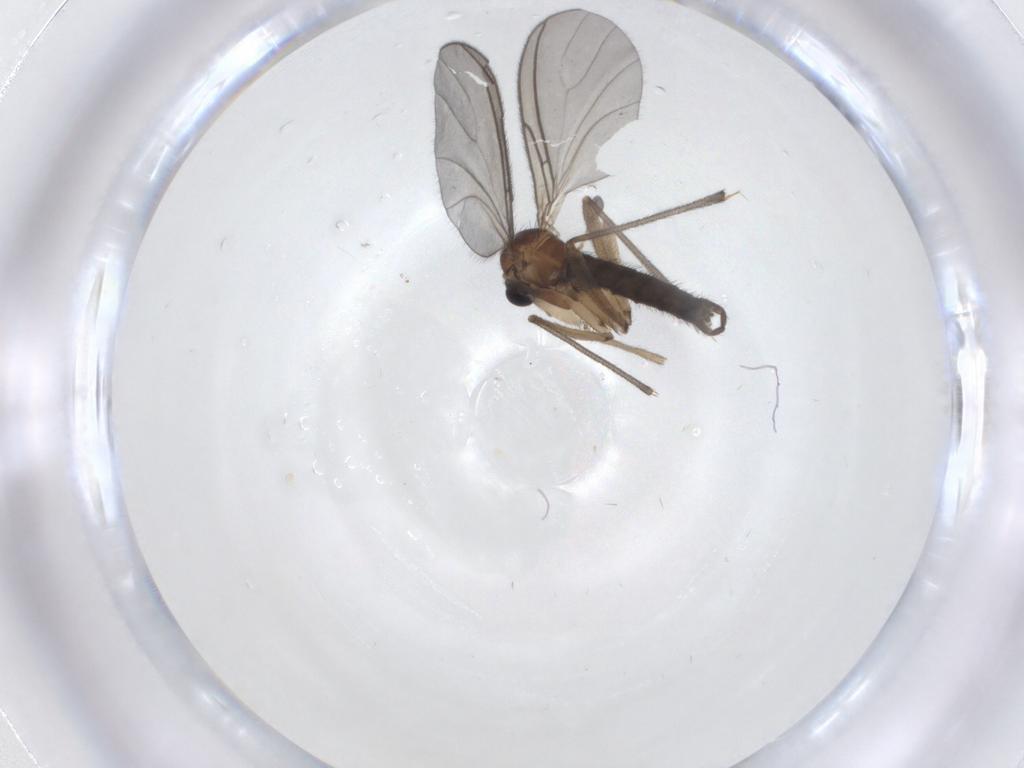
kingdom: Animalia
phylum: Arthropoda
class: Insecta
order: Diptera
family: Sciaridae
